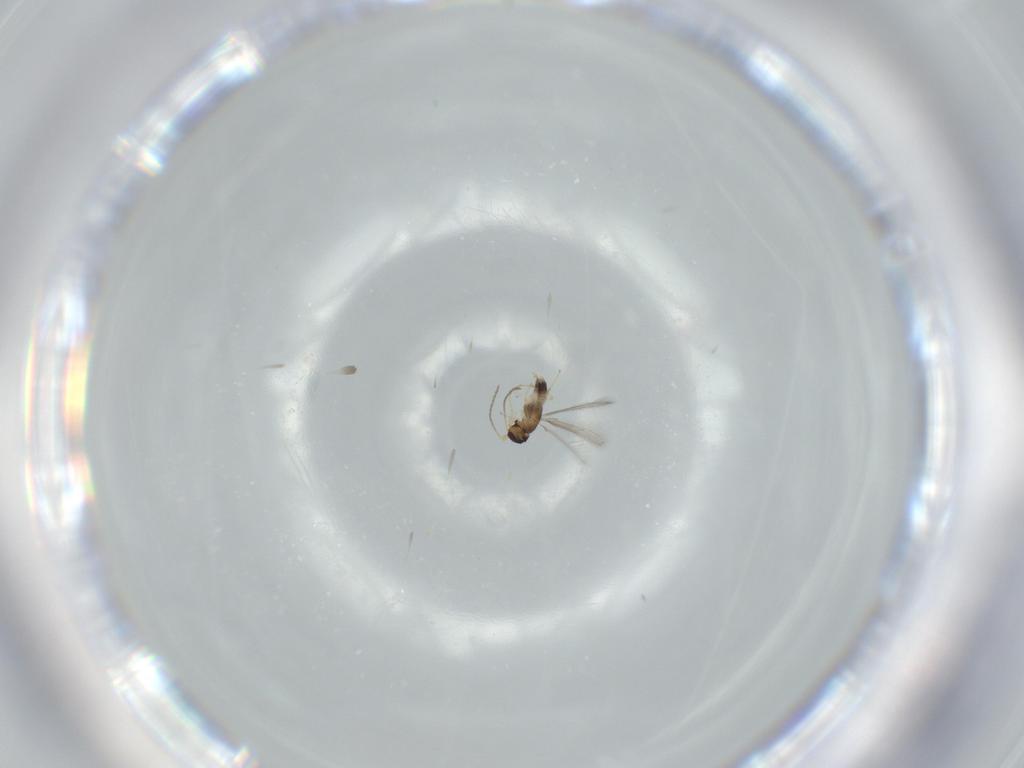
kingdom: Animalia
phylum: Arthropoda
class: Insecta
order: Hymenoptera
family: Mymaridae
